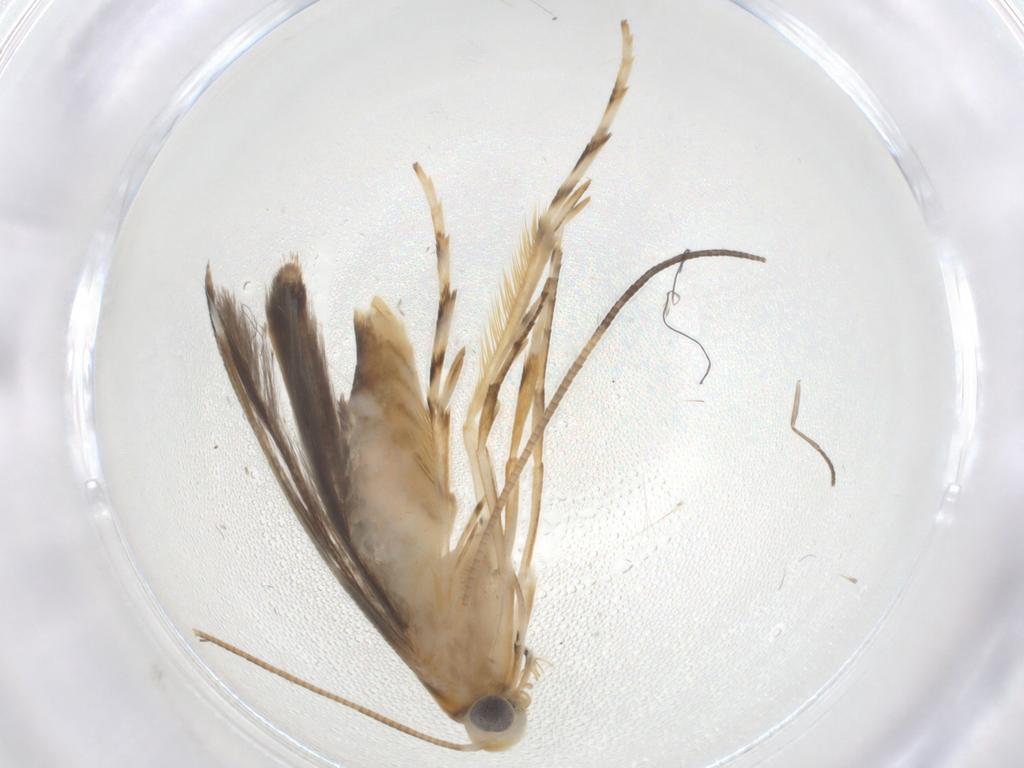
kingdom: Animalia
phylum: Arthropoda
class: Insecta
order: Lepidoptera
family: Gracillariidae
